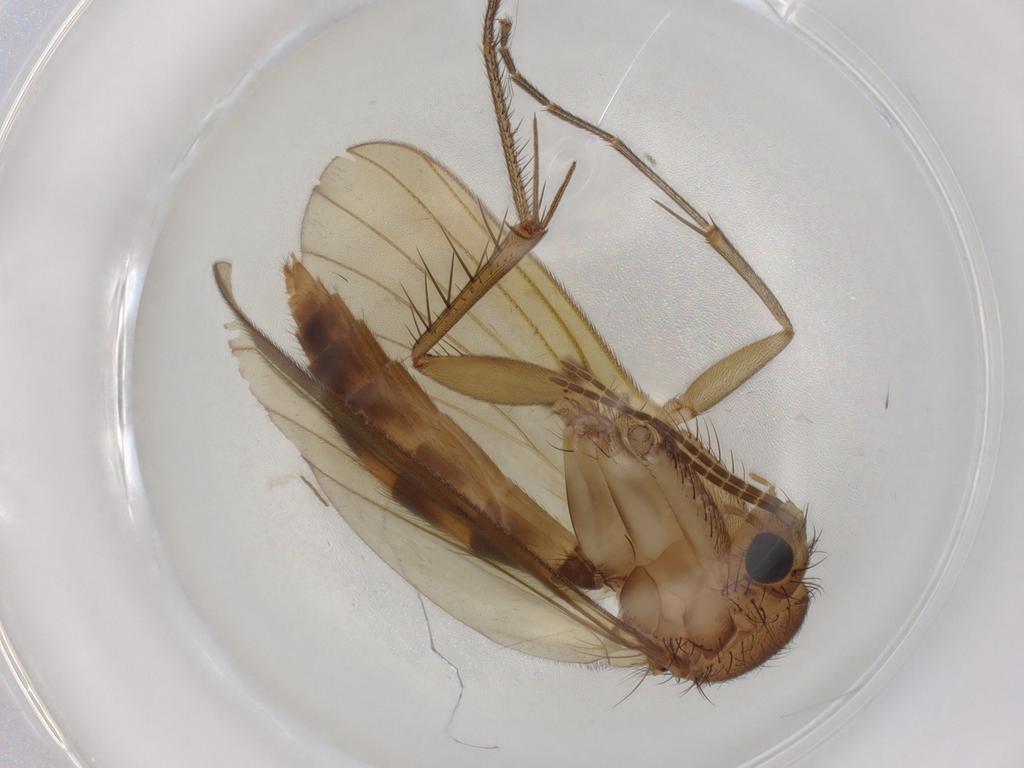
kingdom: Animalia
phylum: Arthropoda
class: Insecta
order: Diptera
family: Mycetophilidae
